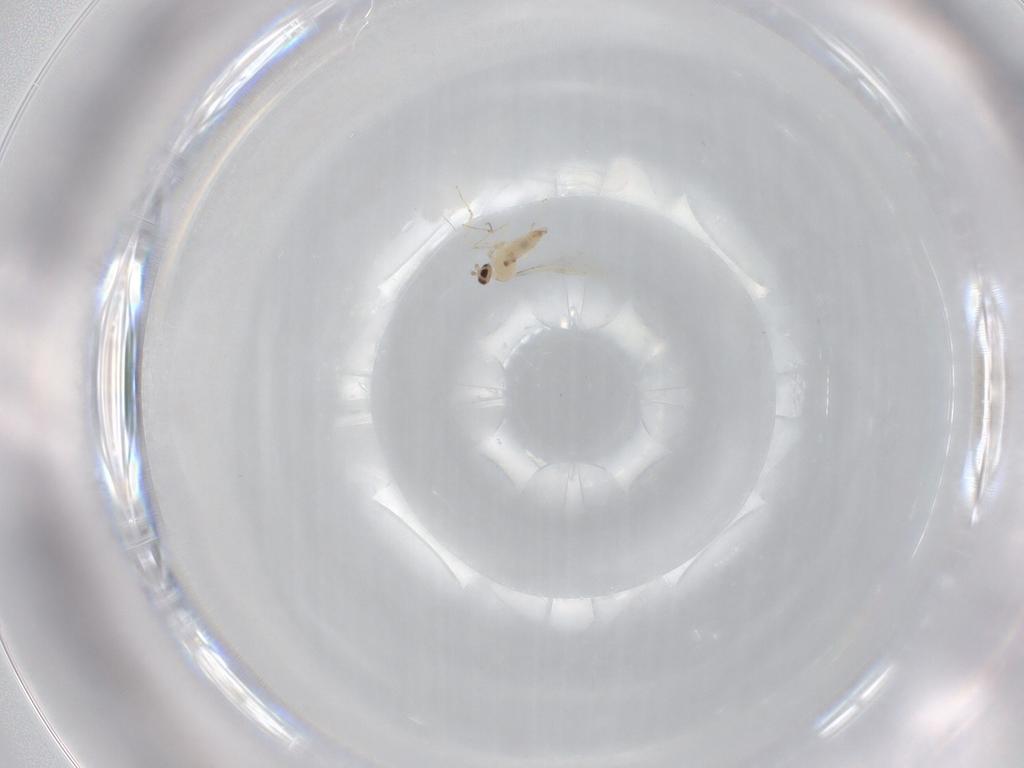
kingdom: Animalia
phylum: Arthropoda
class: Insecta
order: Diptera
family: Cecidomyiidae
